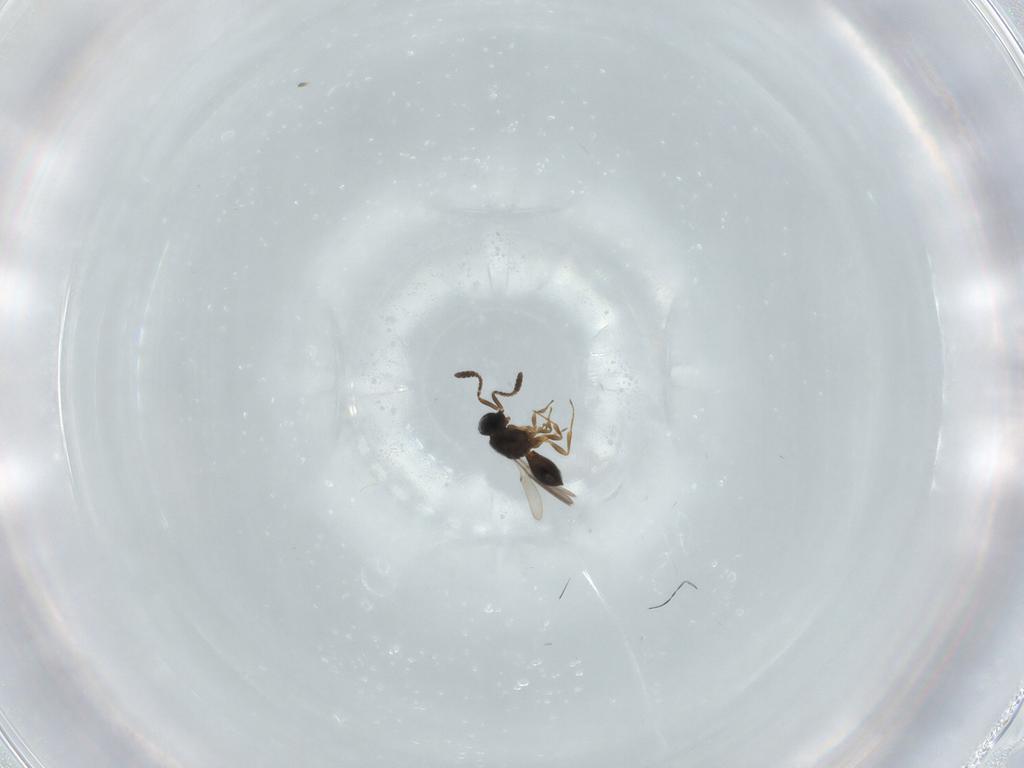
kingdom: Animalia
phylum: Arthropoda
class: Insecta
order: Hymenoptera
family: Scelionidae
